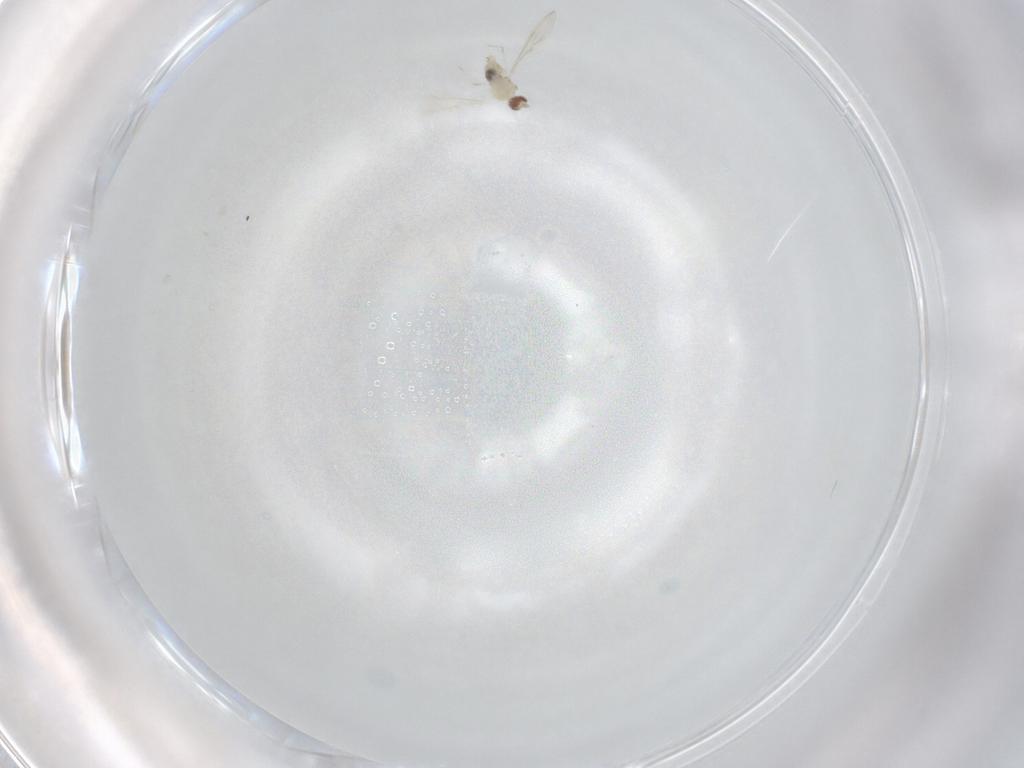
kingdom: Animalia
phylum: Arthropoda
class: Insecta
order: Diptera
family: Cecidomyiidae
